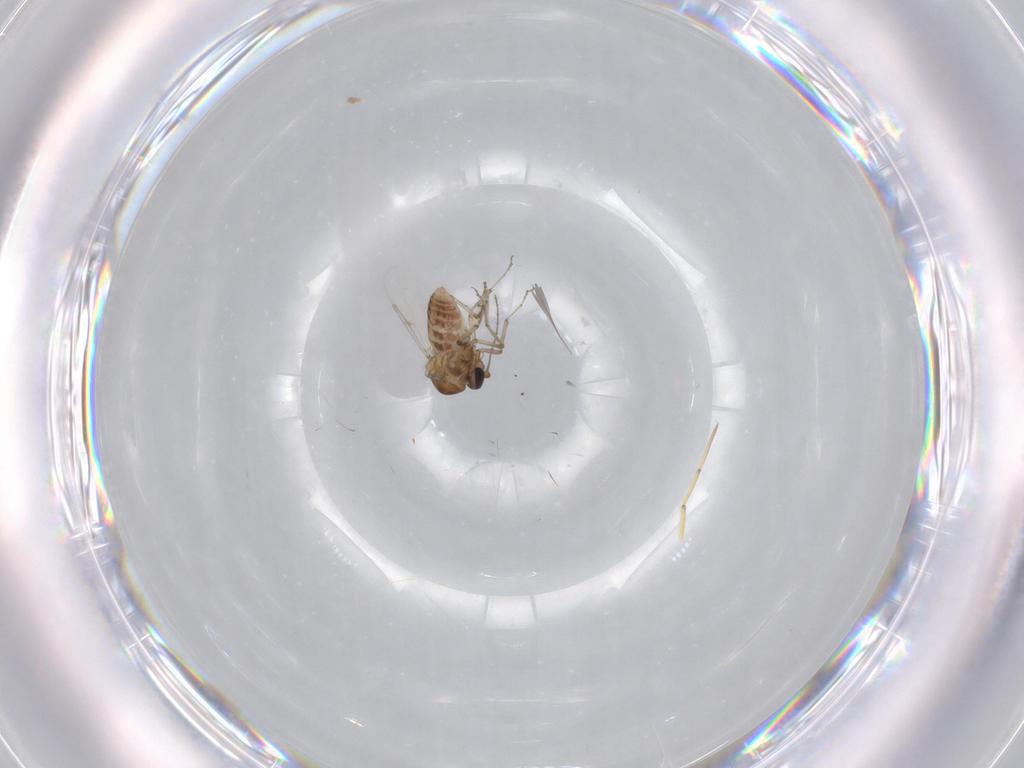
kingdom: Animalia
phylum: Arthropoda
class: Insecta
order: Diptera
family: Ceratopogonidae
